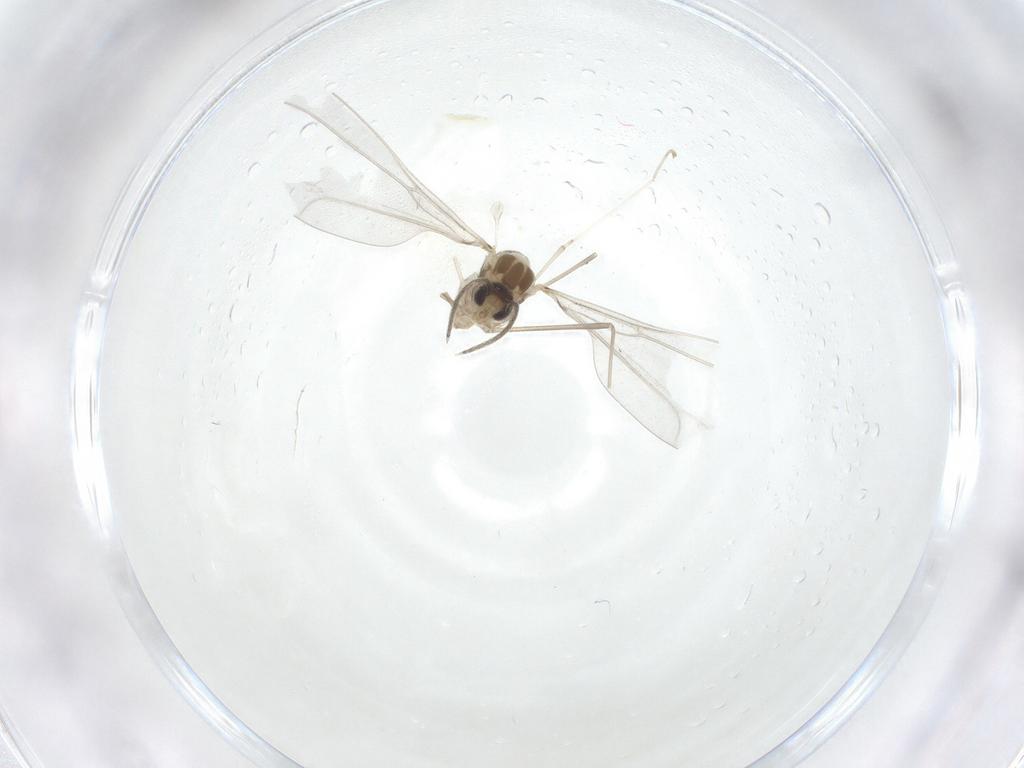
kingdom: Animalia
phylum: Arthropoda
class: Insecta
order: Diptera
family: Cecidomyiidae
